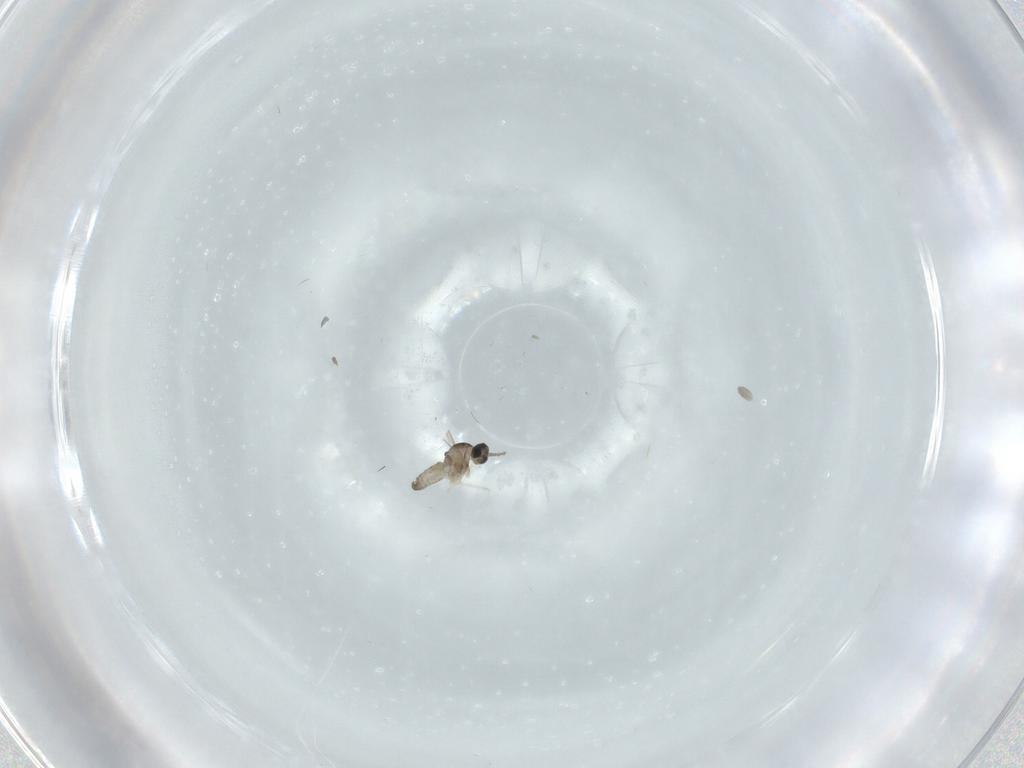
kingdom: Animalia
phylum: Arthropoda
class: Insecta
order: Diptera
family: Cecidomyiidae
